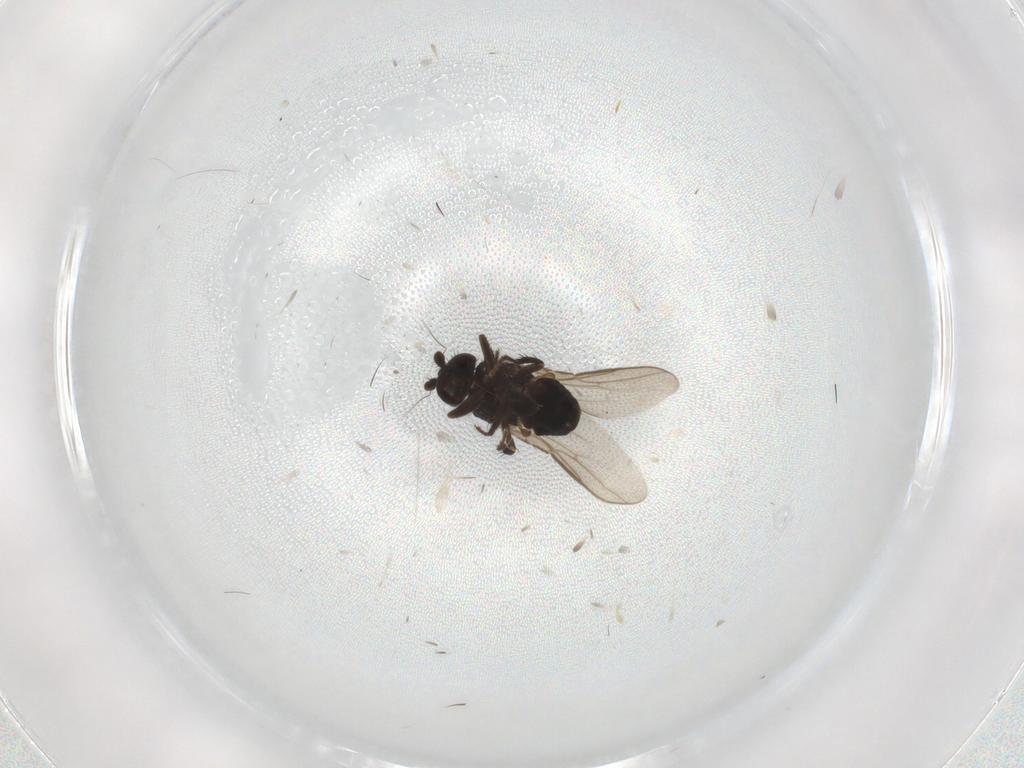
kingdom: Animalia
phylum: Arthropoda
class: Insecta
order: Diptera
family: Sphaeroceridae
